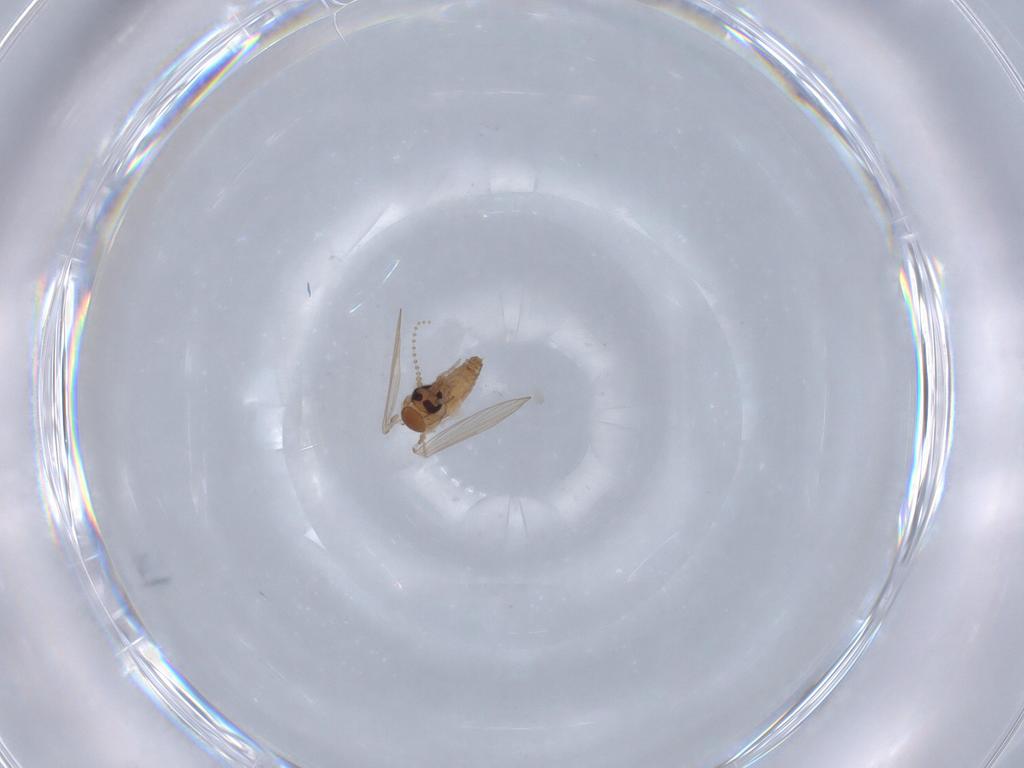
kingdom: Animalia
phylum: Arthropoda
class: Insecta
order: Diptera
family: Psychodidae
